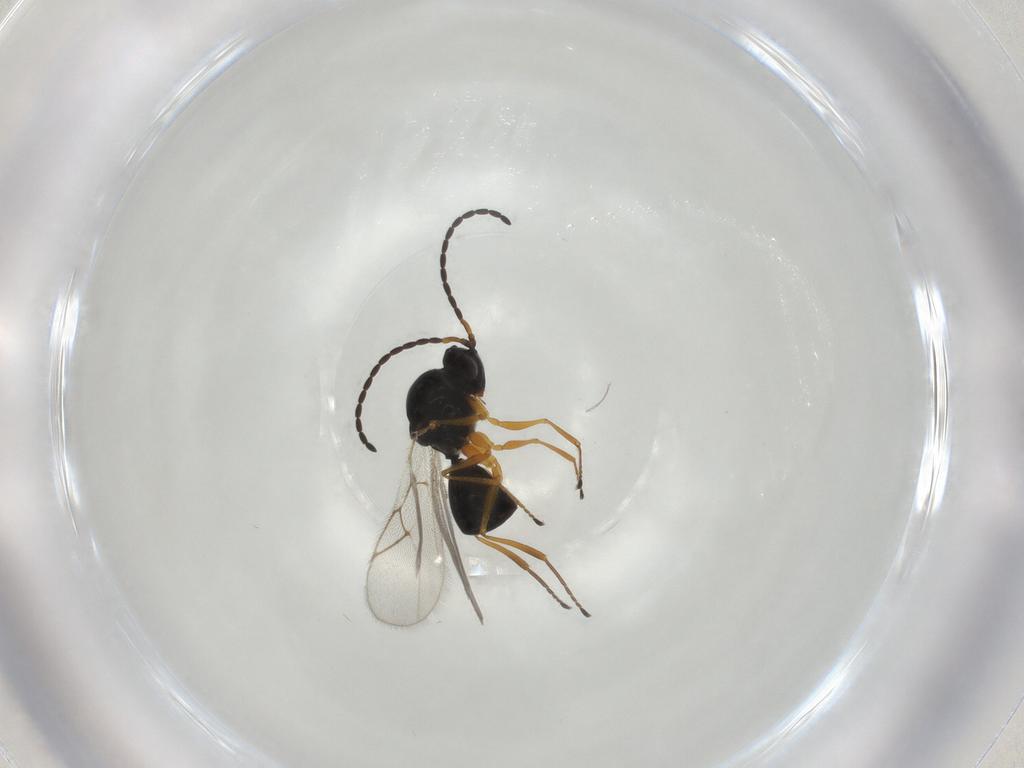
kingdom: Animalia
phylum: Arthropoda
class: Insecta
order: Hymenoptera
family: Figitidae
